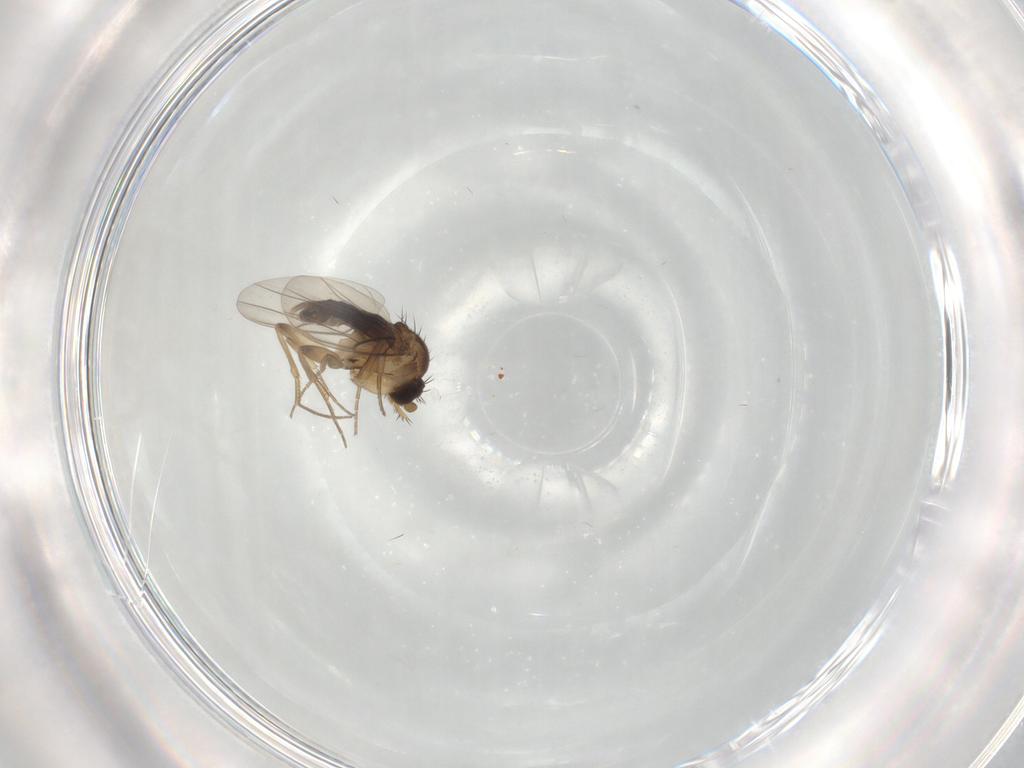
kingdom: Animalia
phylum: Arthropoda
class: Insecta
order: Diptera
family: Phoridae
